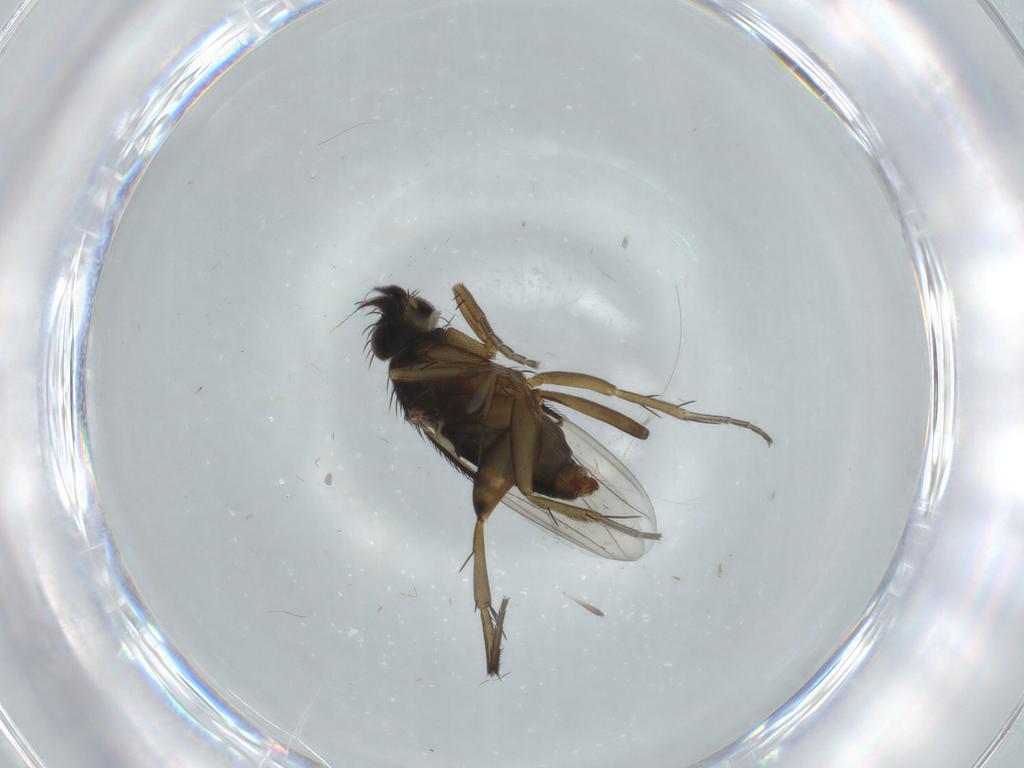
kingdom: Animalia
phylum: Arthropoda
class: Insecta
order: Diptera
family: Phoridae
